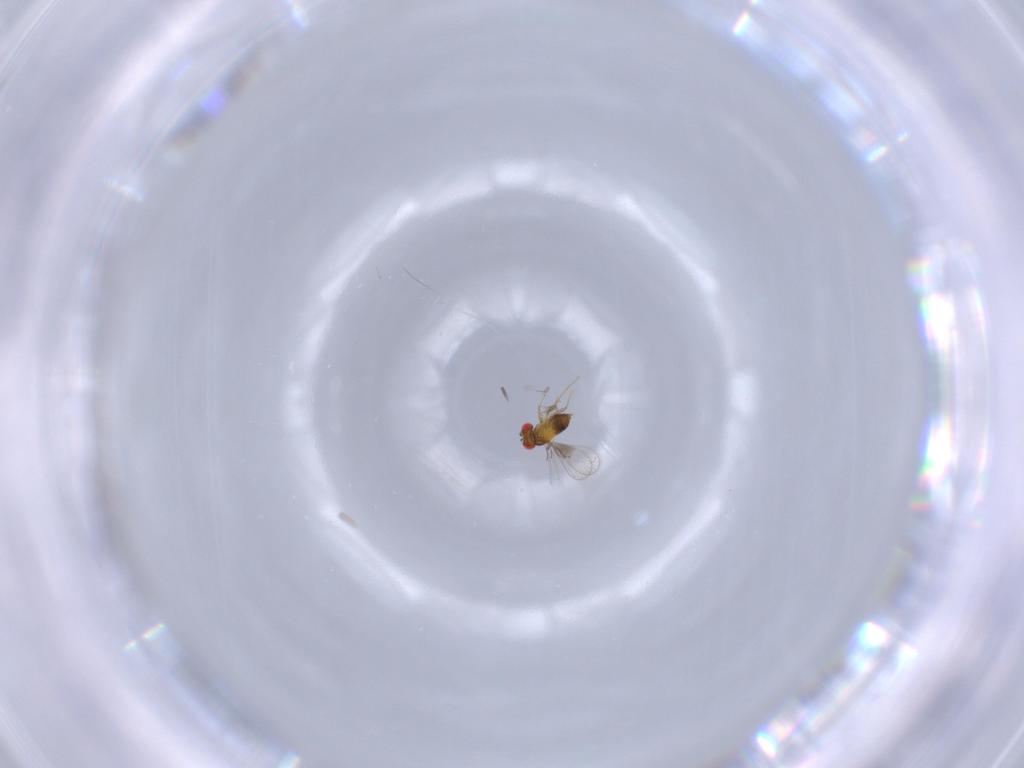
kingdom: Animalia
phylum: Arthropoda
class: Insecta
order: Hymenoptera
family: Trichogrammatidae
